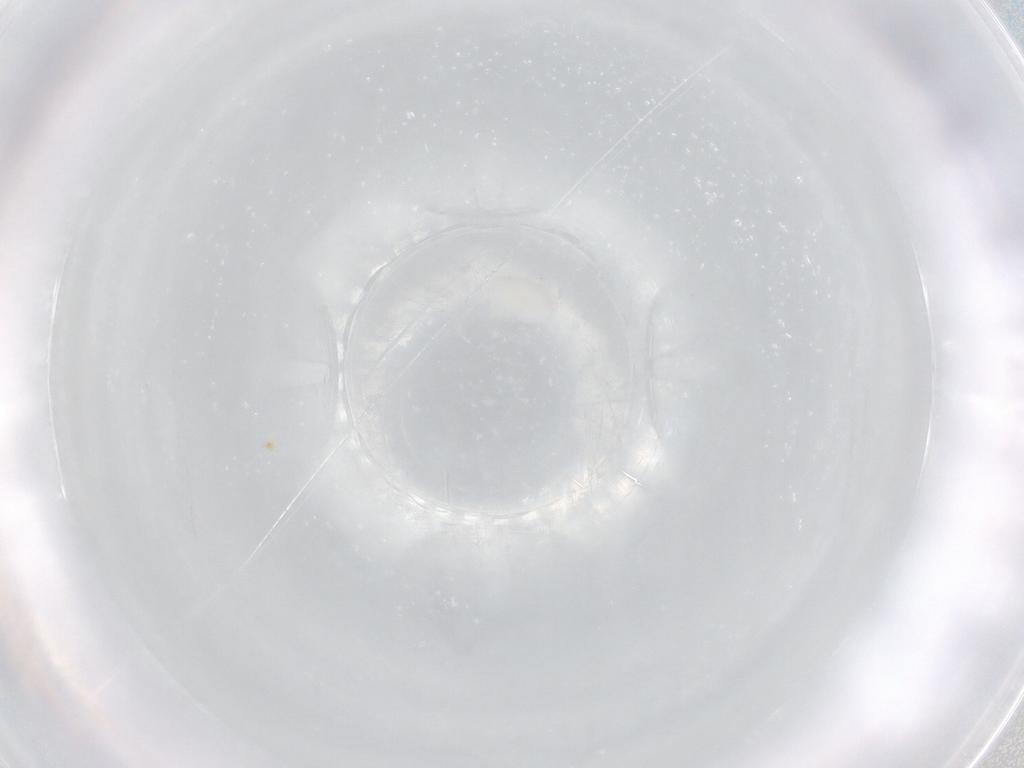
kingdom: Animalia
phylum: Arthropoda
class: Insecta
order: Hymenoptera
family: Formicidae
